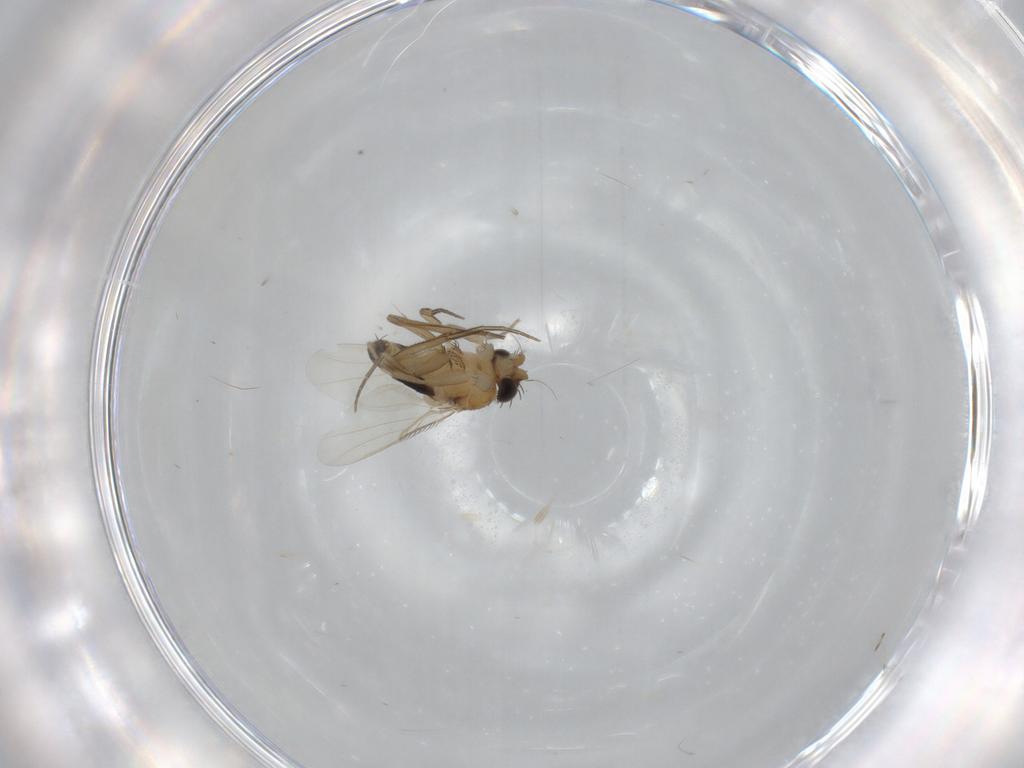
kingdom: Animalia
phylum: Arthropoda
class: Insecta
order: Diptera
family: Phoridae
